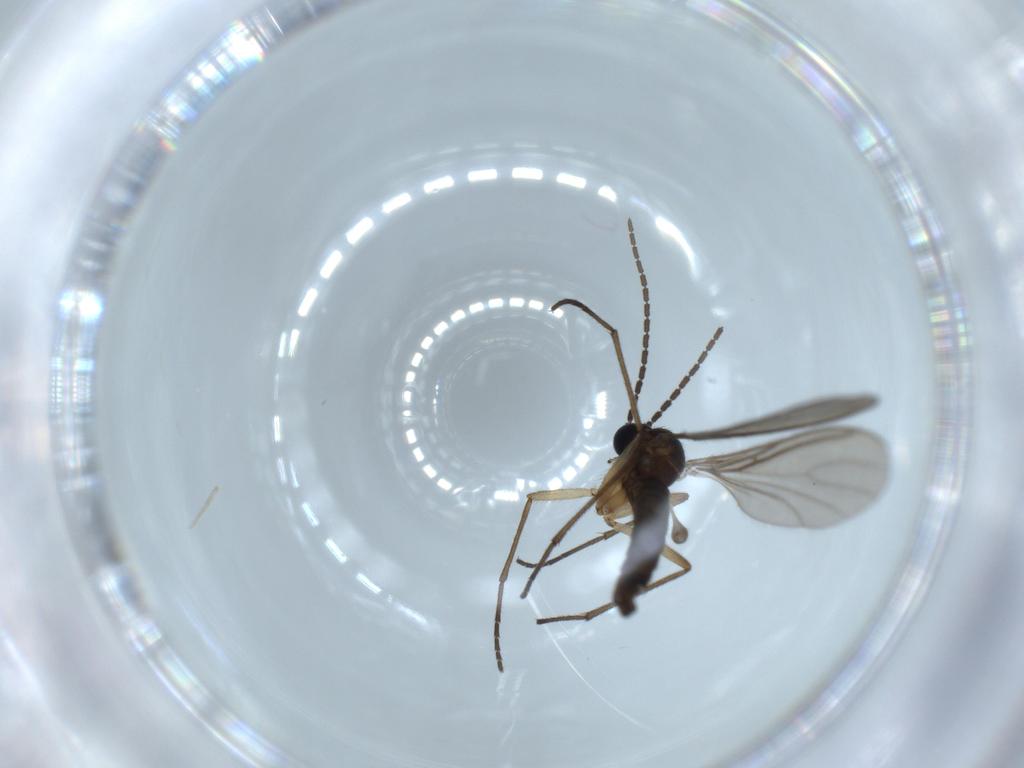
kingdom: Animalia
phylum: Arthropoda
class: Insecta
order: Diptera
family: Sciaridae
